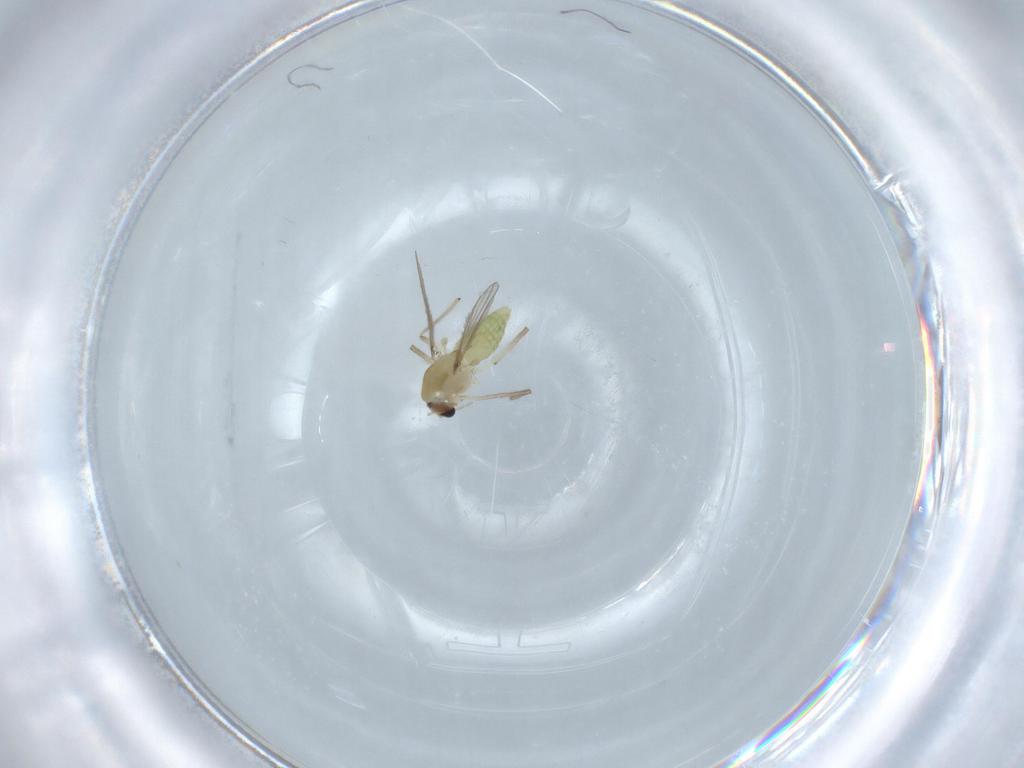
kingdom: Animalia
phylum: Arthropoda
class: Insecta
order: Diptera
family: Chironomidae
